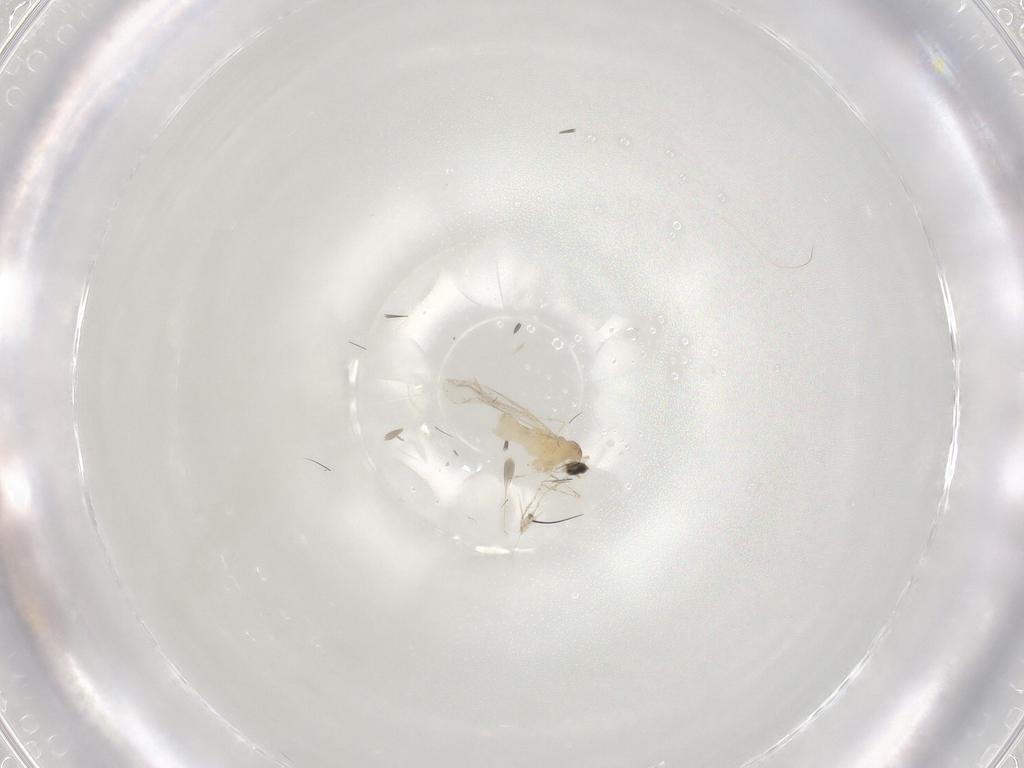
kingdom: Animalia
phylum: Arthropoda
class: Insecta
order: Diptera
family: Cecidomyiidae
